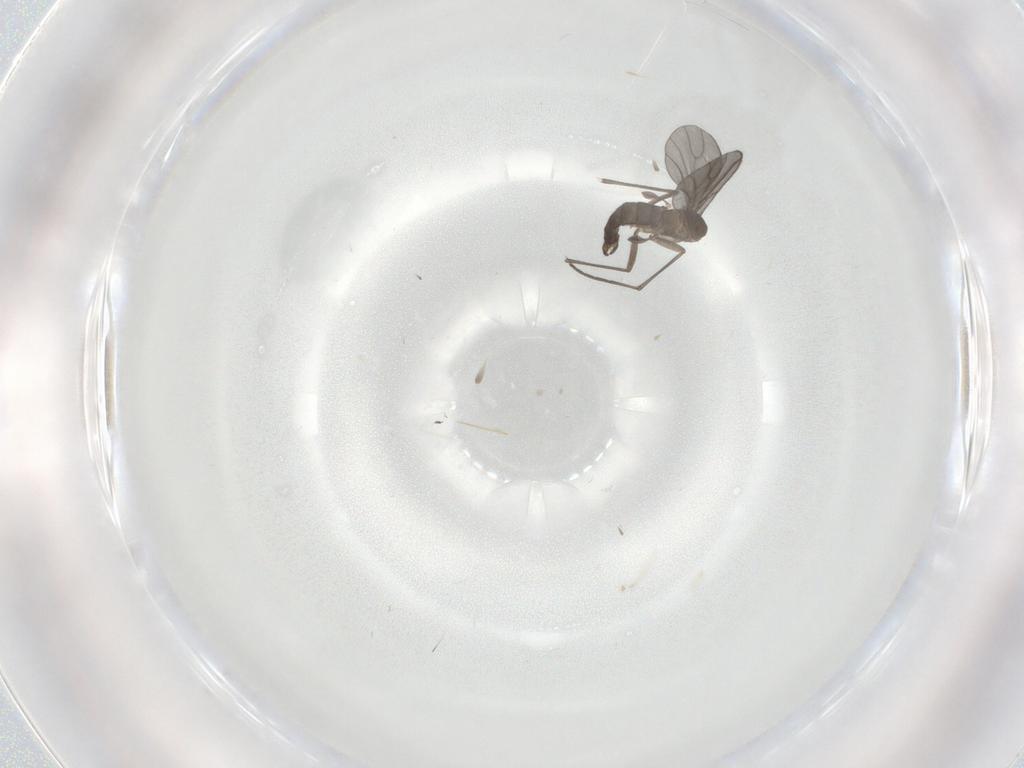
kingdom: Animalia
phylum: Arthropoda
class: Insecta
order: Diptera
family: Sciaridae
